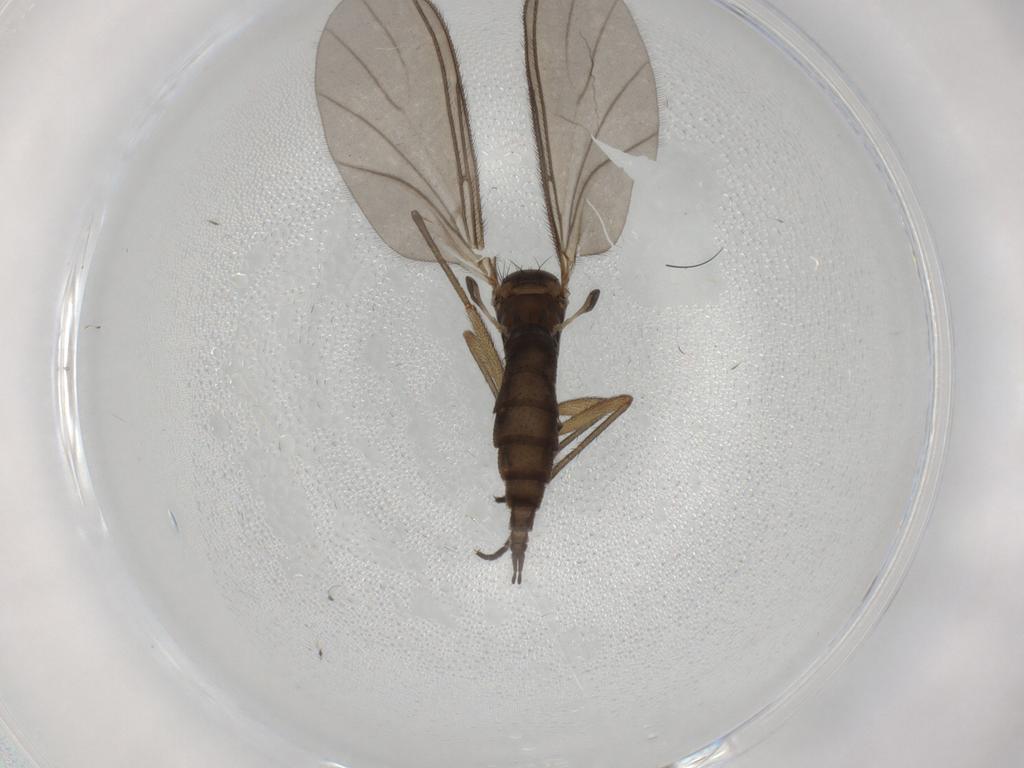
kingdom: Animalia
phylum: Arthropoda
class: Insecta
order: Diptera
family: Sciaridae
